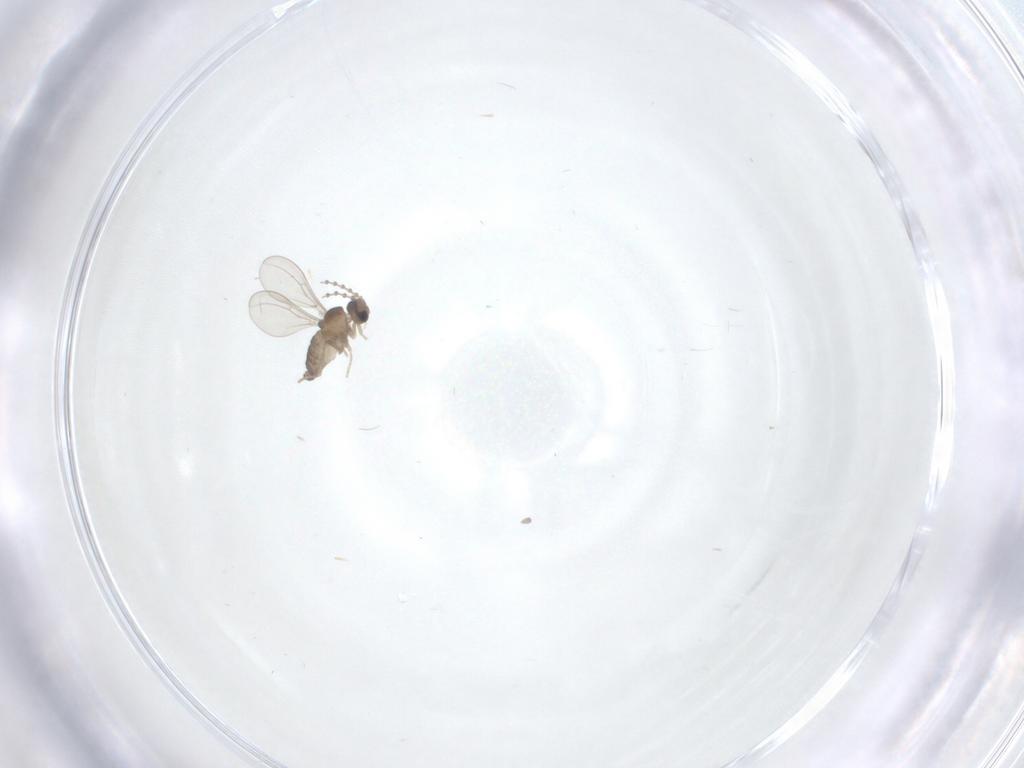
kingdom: Animalia
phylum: Arthropoda
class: Insecta
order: Diptera
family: Cecidomyiidae
